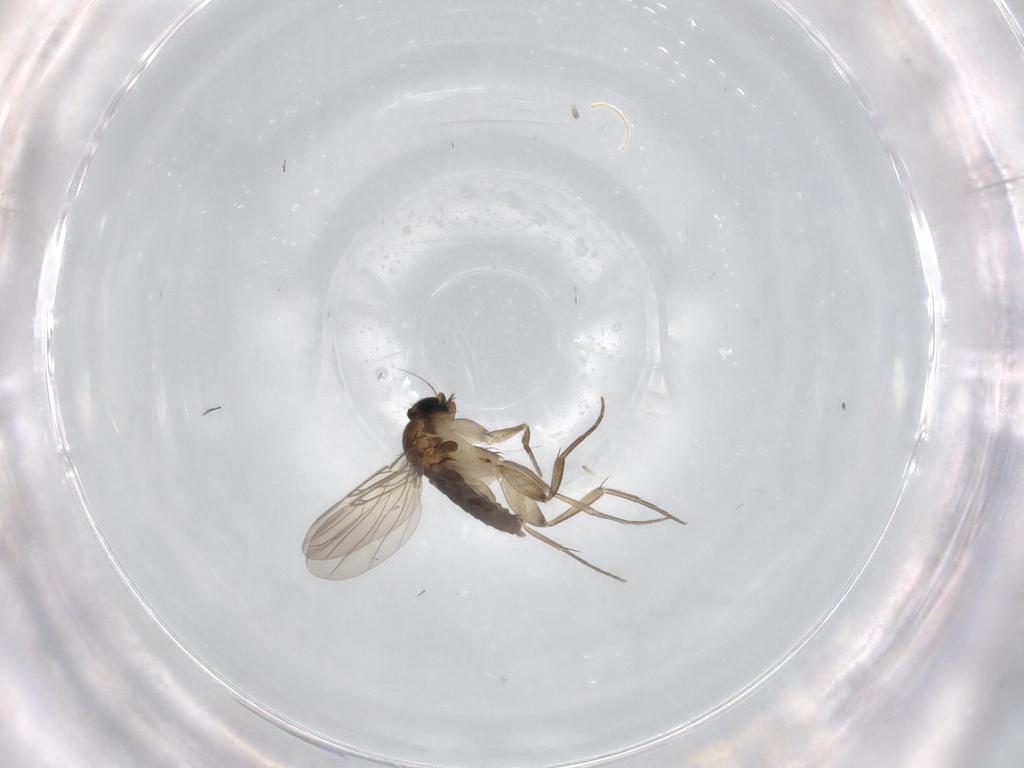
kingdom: Animalia
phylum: Arthropoda
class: Insecta
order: Diptera
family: Phoridae
